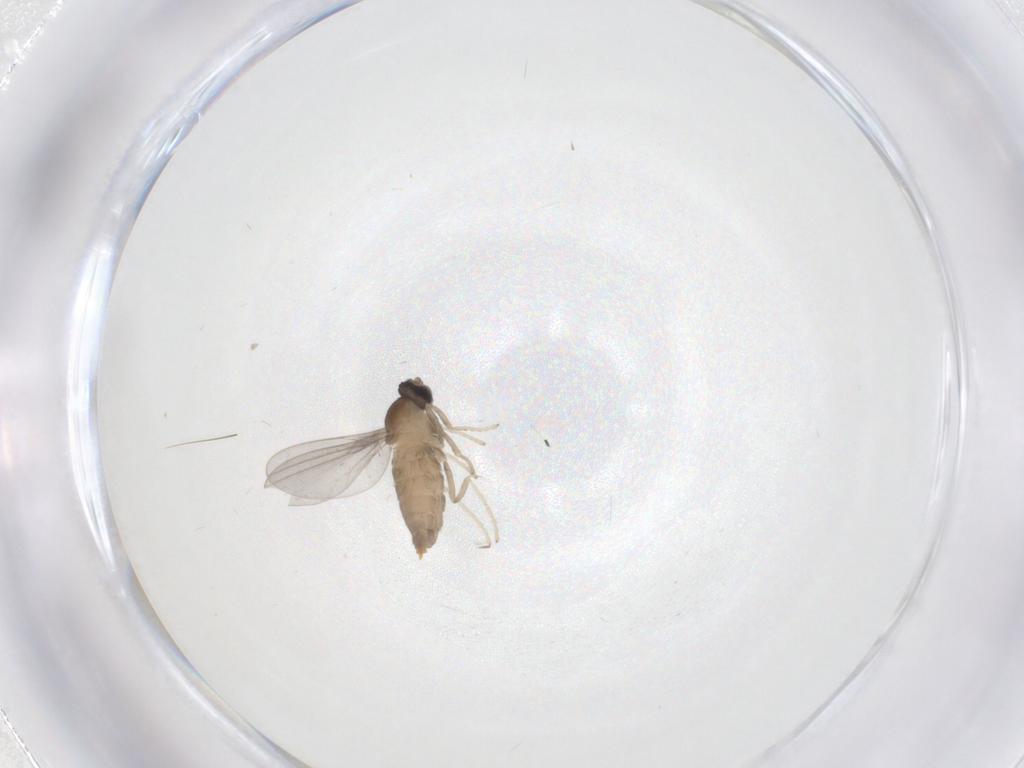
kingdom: Animalia
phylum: Arthropoda
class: Insecta
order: Diptera
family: Cecidomyiidae
